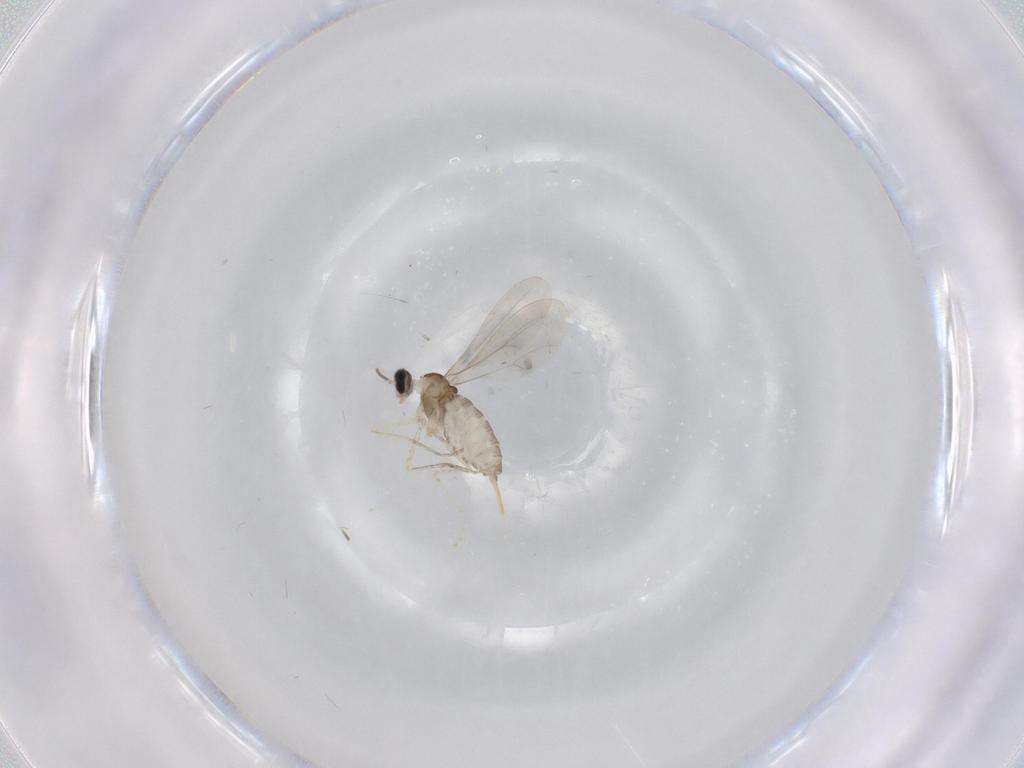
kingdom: Animalia
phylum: Arthropoda
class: Insecta
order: Diptera
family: Cecidomyiidae
